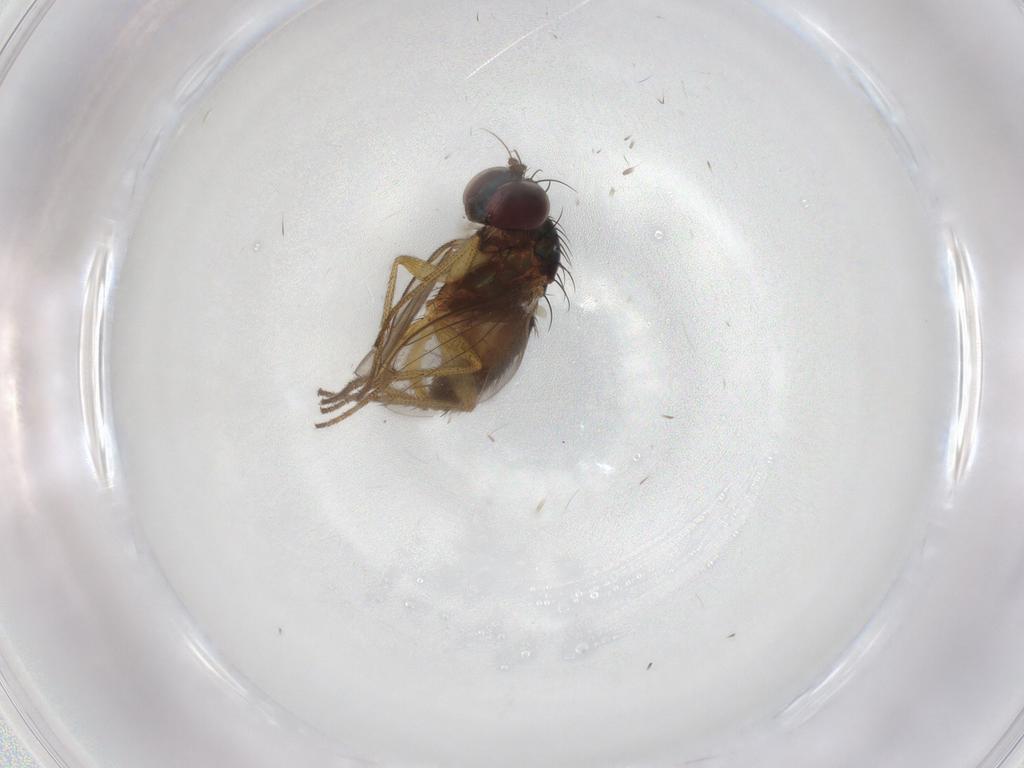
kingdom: Animalia
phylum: Arthropoda
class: Insecta
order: Diptera
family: Chironomidae
